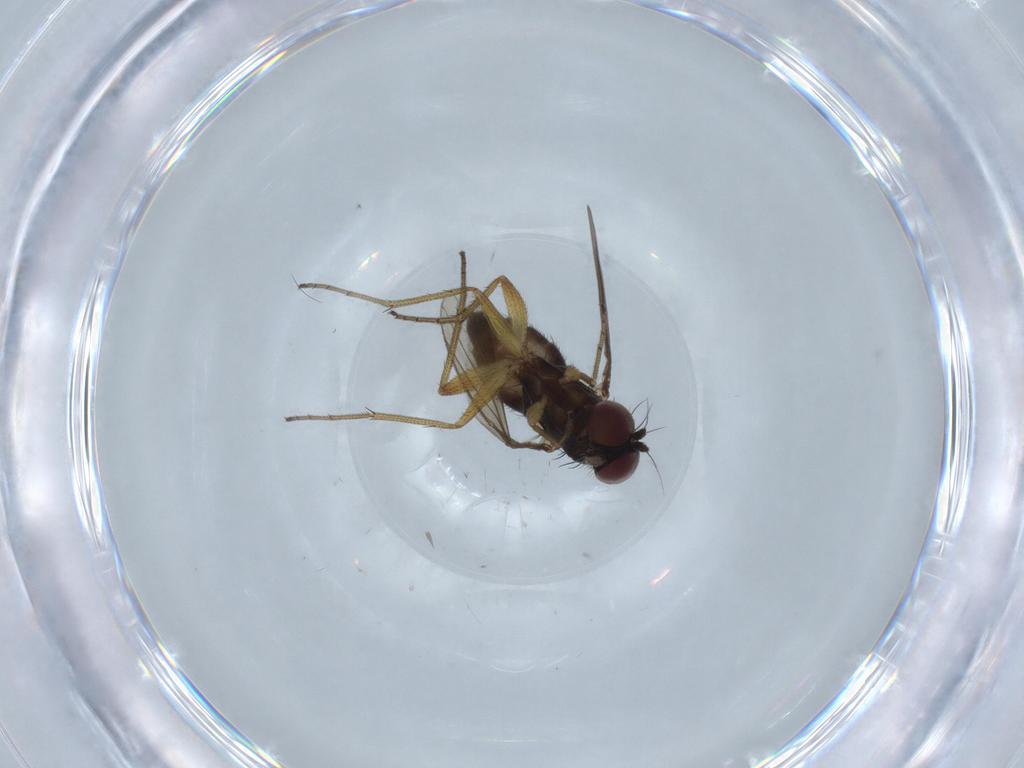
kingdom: Animalia
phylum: Arthropoda
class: Insecta
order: Diptera
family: Dolichopodidae
